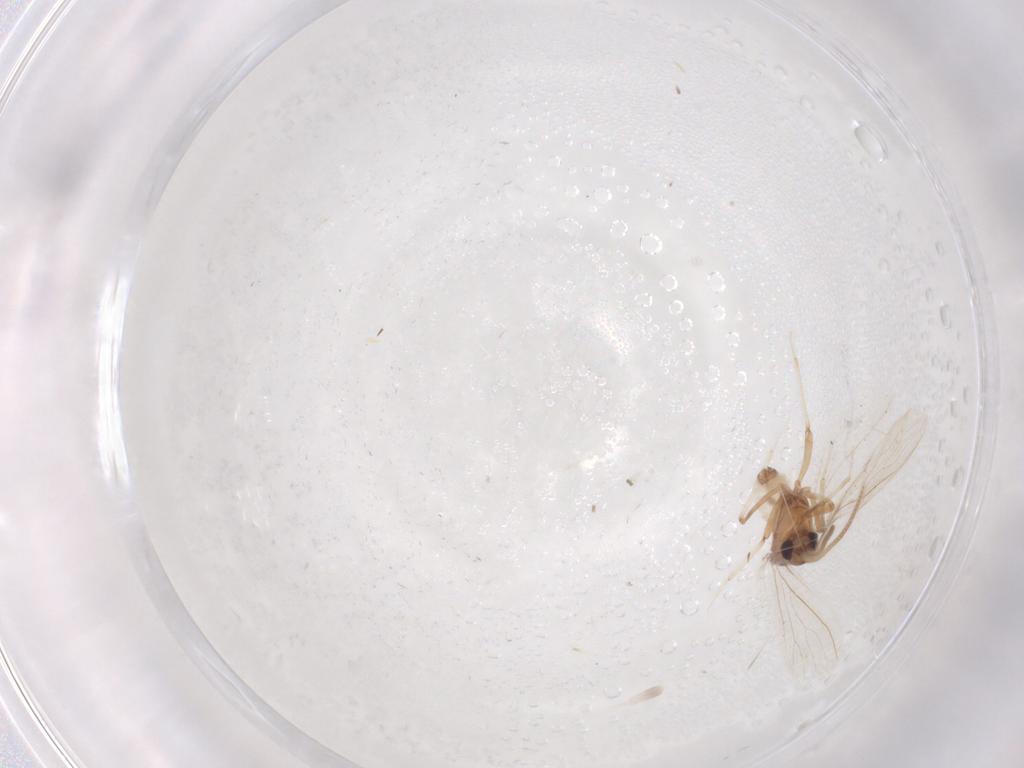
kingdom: Animalia
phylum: Arthropoda
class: Insecta
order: Neuroptera
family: Coniopterygidae
